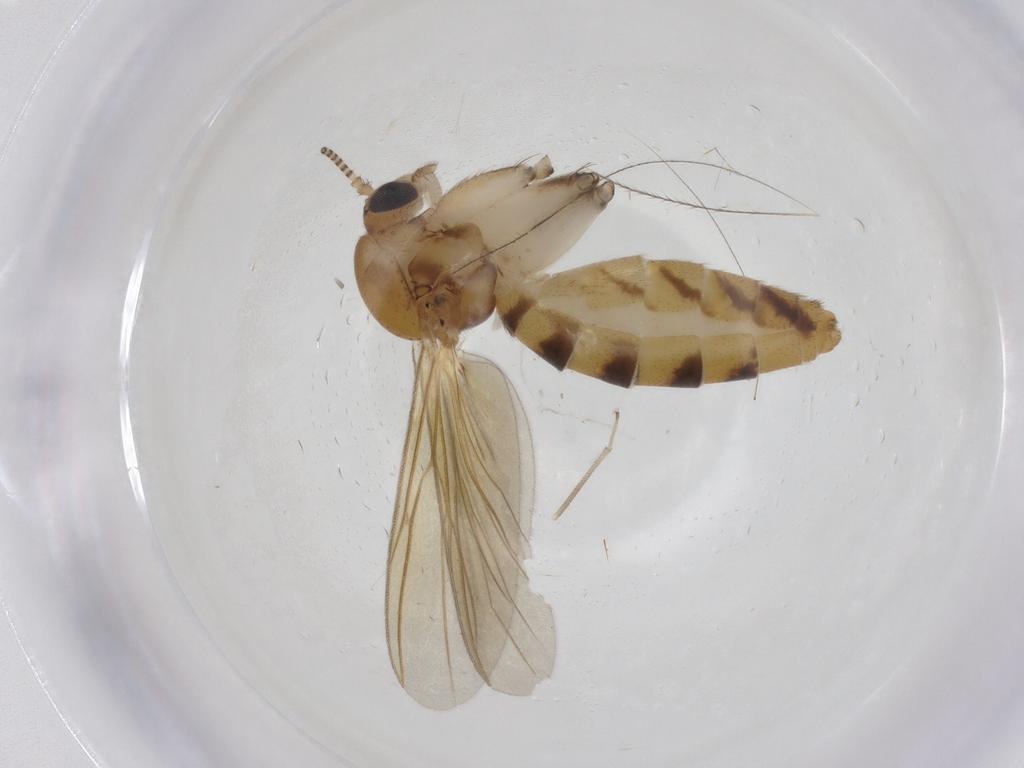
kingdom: Animalia
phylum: Arthropoda
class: Insecta
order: Diptera
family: Mycetophilidae
